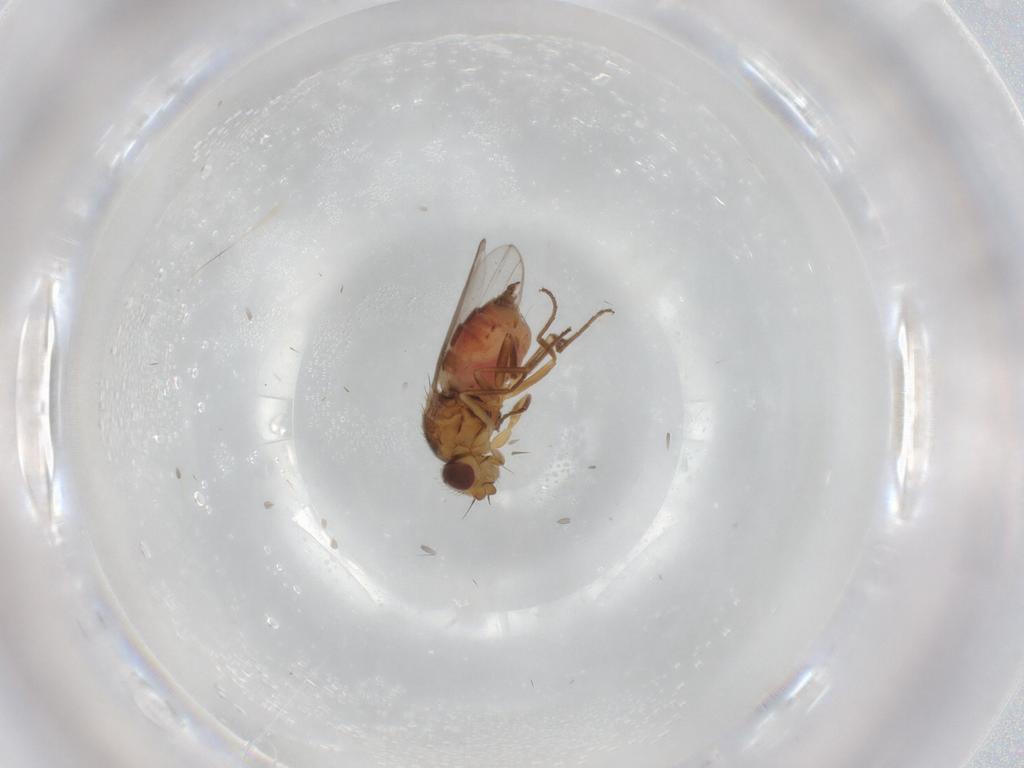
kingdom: Animalia
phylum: Arthropoda
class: Insecta
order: Diptera
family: Chloropidae
